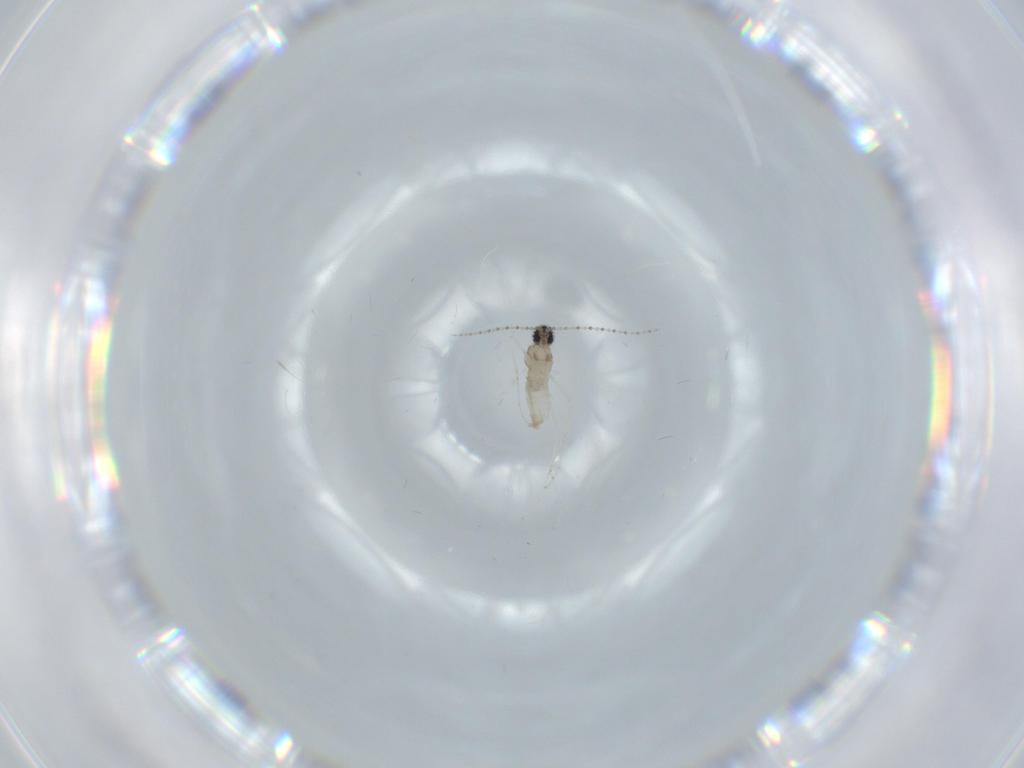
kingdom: Animalia
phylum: Arthropoda
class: Insecta
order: Diptera
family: Cecidomyiidae
